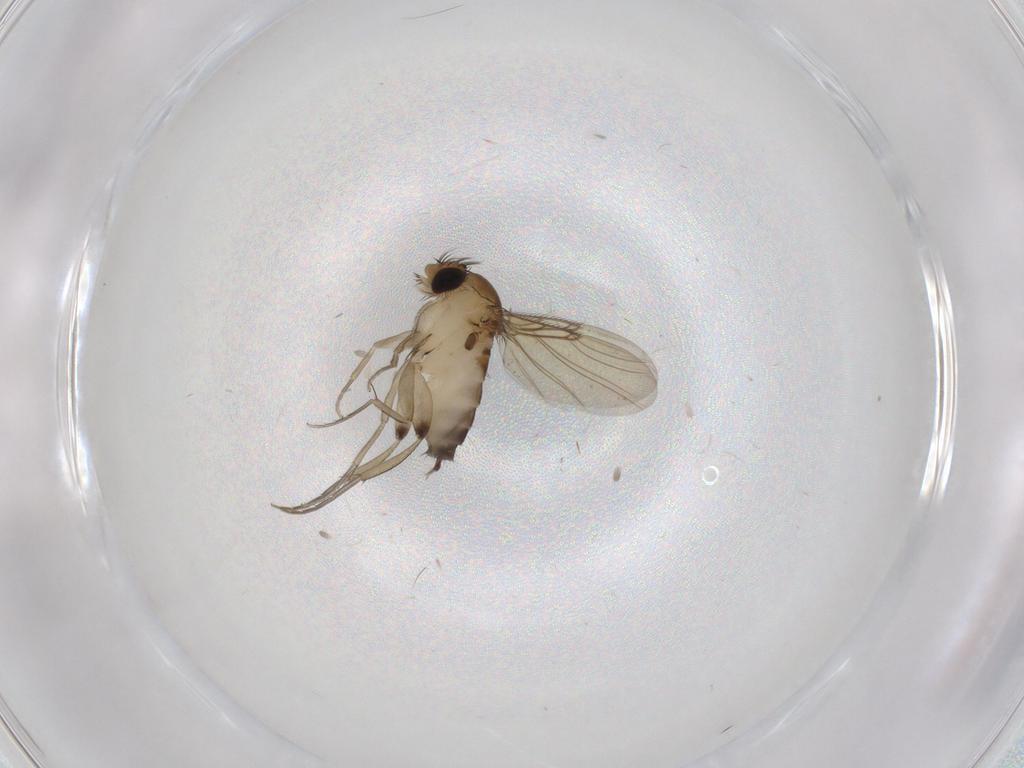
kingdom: Animalia
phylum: Arthropoda
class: Insecta
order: Diptera
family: Phoridae
